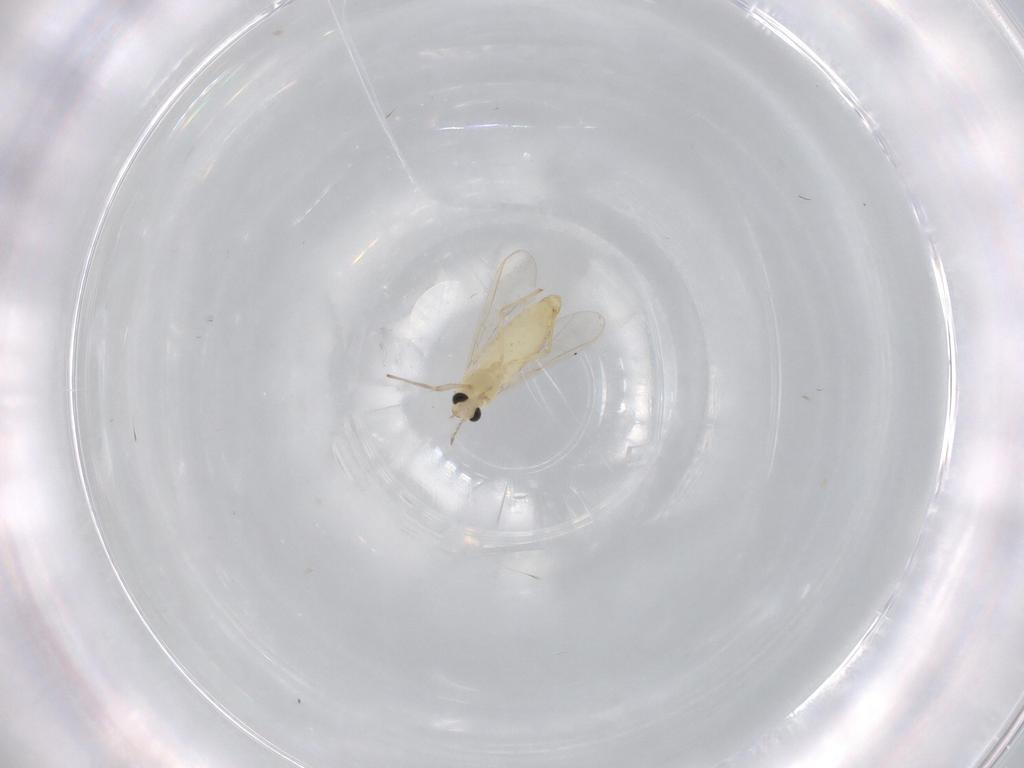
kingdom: Animalia
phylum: Arthropoda
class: Insecta
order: Diptera
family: Chironomidae
